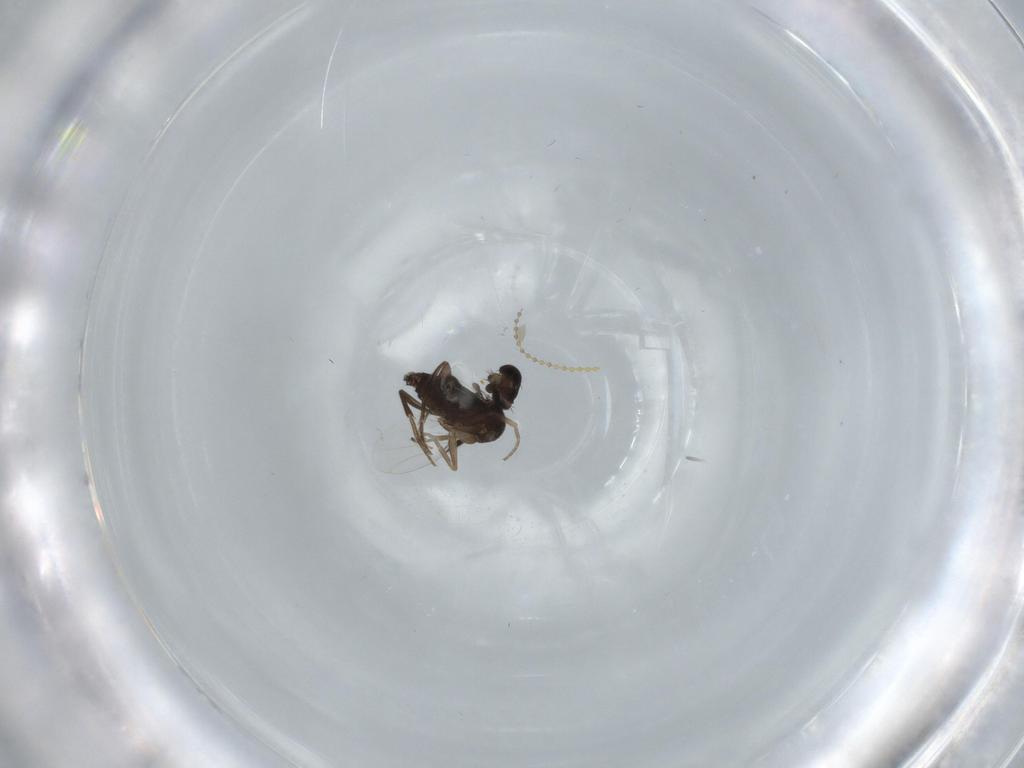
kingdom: Animalia
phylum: Arthropoda
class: Insecta
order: Diptera
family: Phoridae
